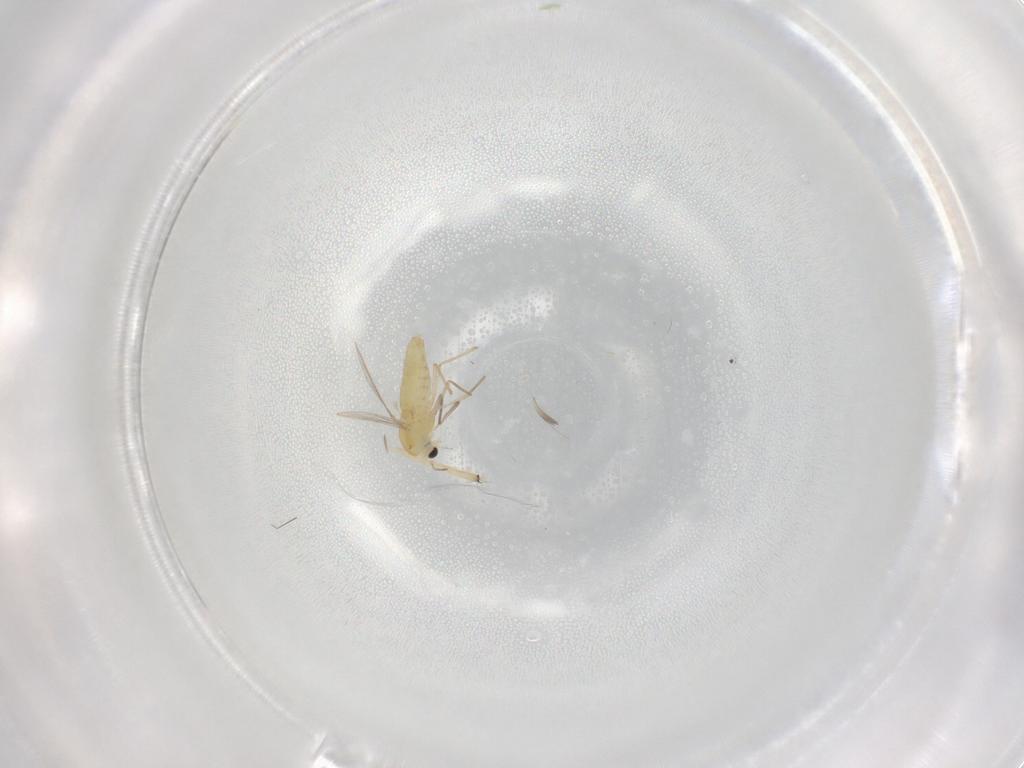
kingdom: Animalia
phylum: Arthropoda
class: Insecta
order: Diptera
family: Chironomidae
